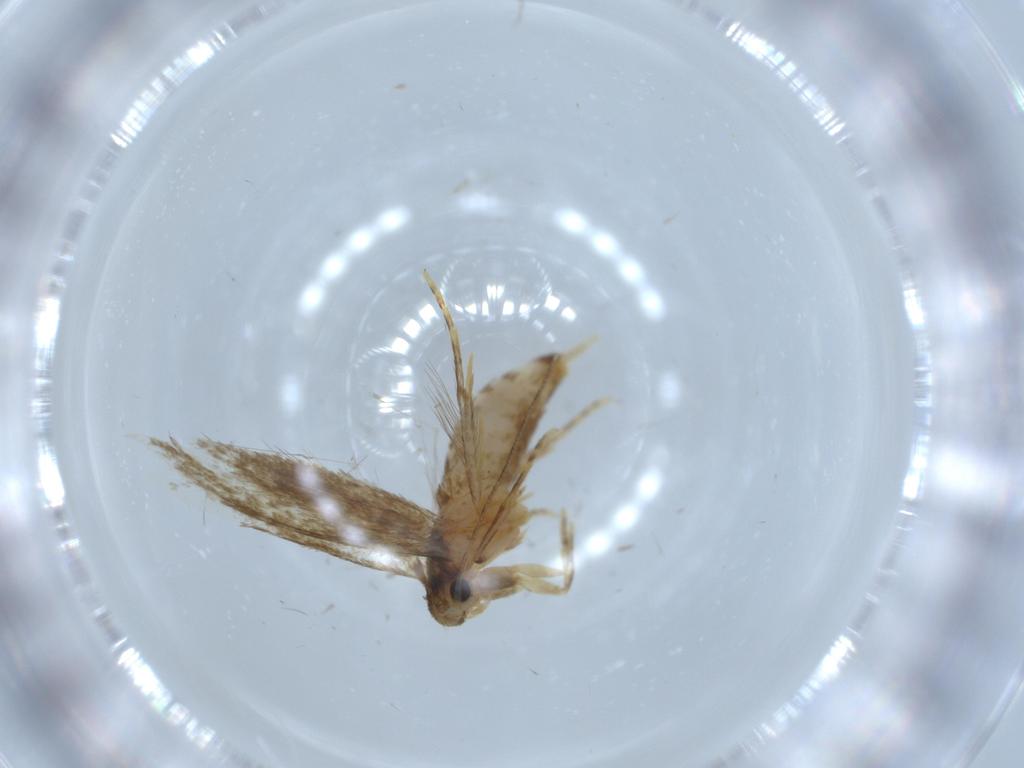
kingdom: Animalia
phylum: Arthropoda
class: Insecta
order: Lepidoptera
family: Tineidae
